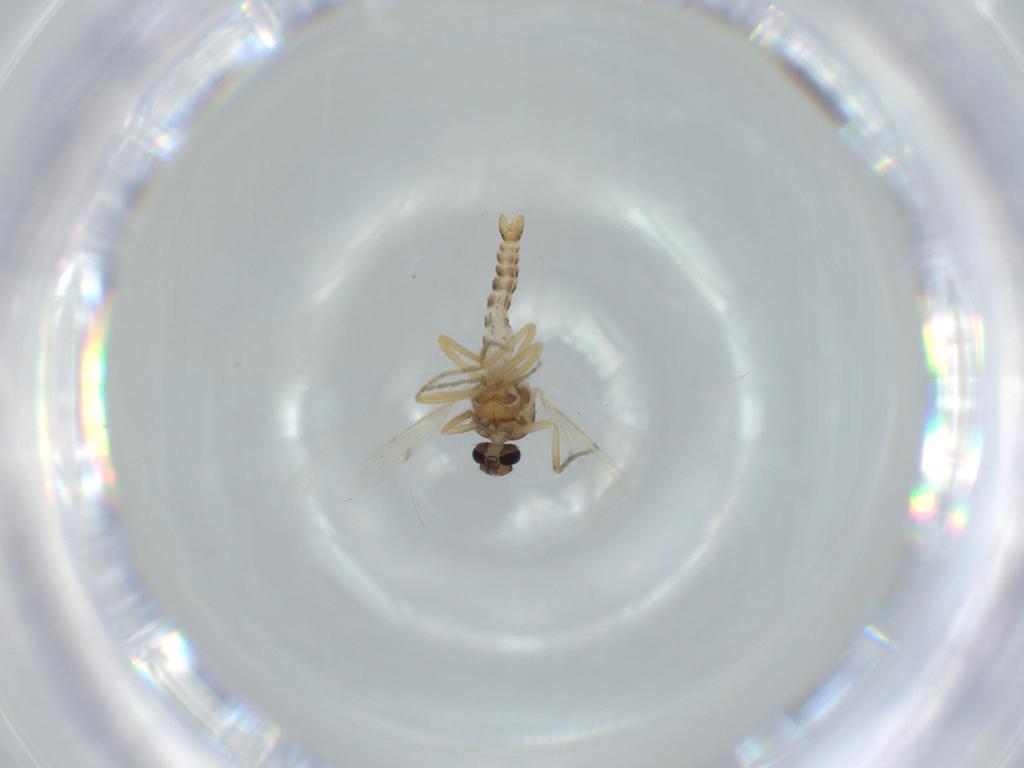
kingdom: Animalia
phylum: Arthropoda
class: Insecta
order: Diptera
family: Ceratopogonidae
